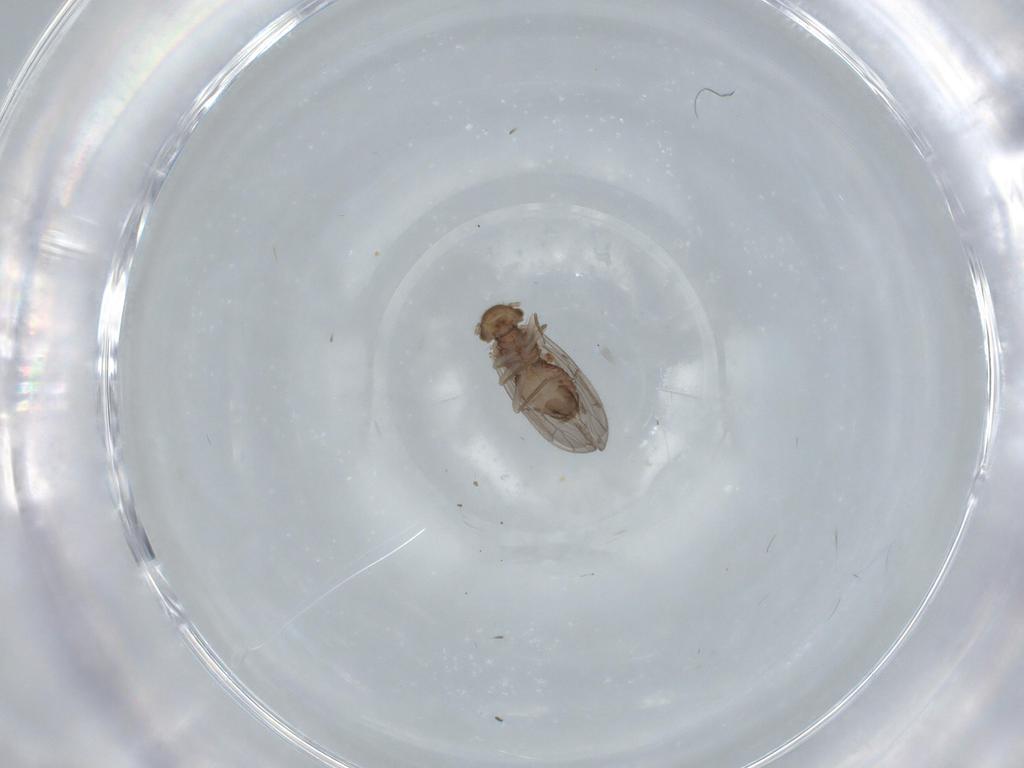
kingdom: Animalia
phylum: Arthropoda
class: Insecta
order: Psocodea
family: Ectopsocidae
